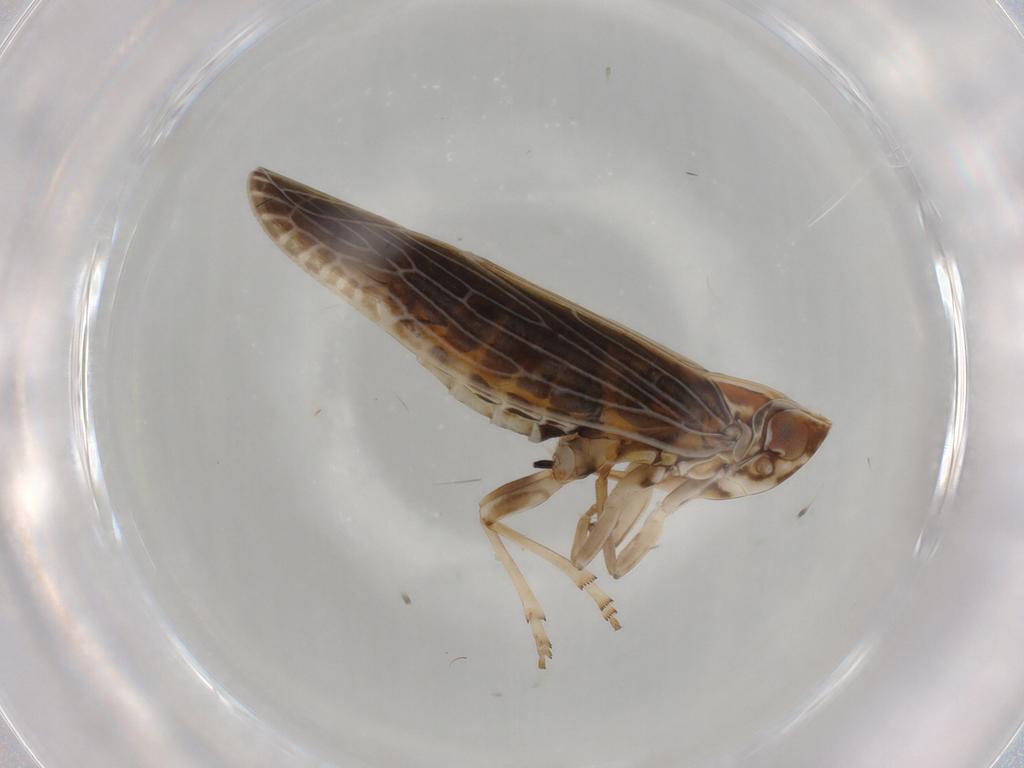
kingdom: Animalia
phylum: Arthropoda
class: Insecta
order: Hemiptera
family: Achilidae
